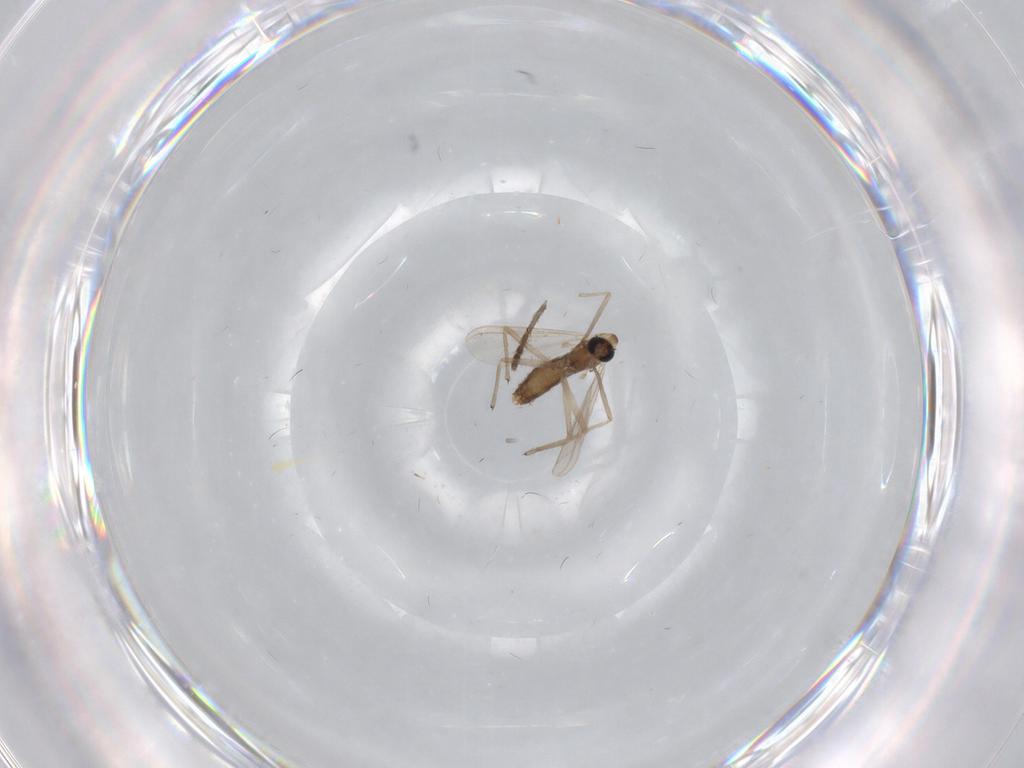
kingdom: Animalia
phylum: Arthropoda
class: Insecta
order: Diptera
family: Chironomidae
